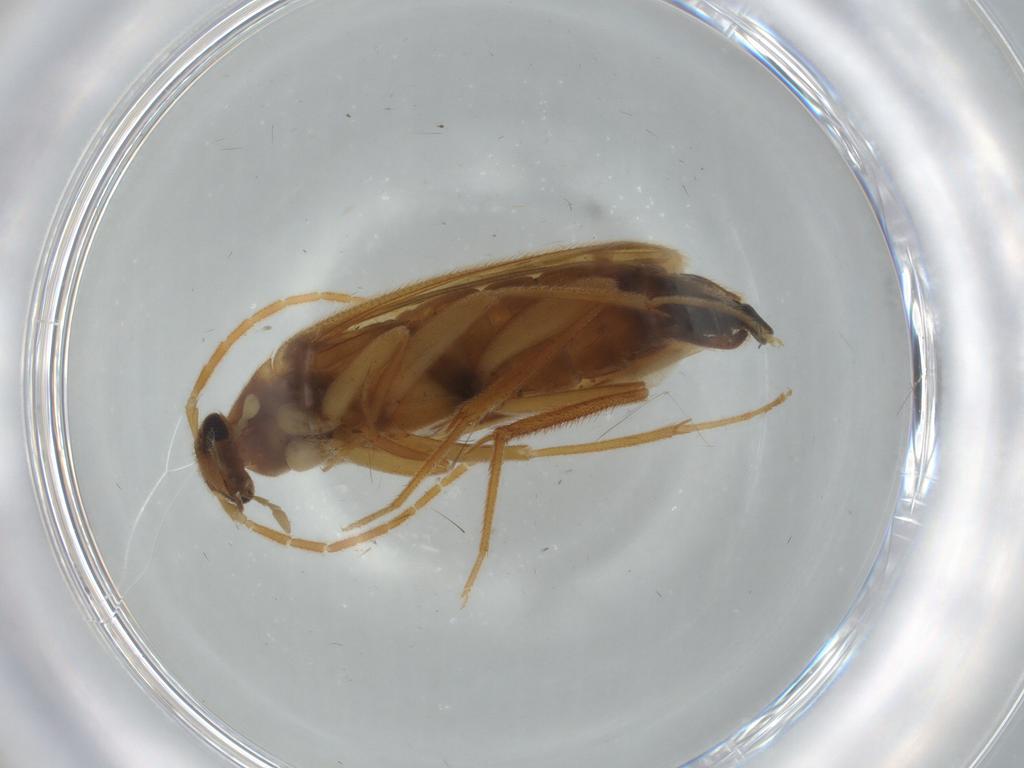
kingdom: Animalia
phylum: Arthropoda
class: Insecta
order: Coleoptera
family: Scraptiidae
